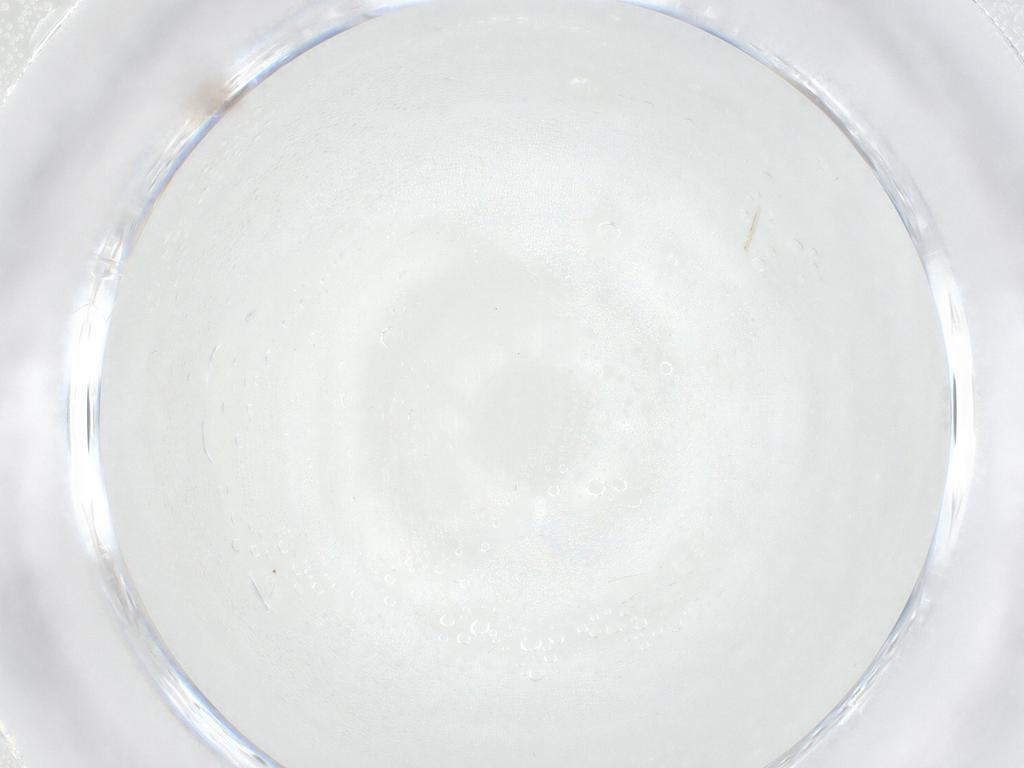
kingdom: Animalia
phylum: Arthropoda
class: Insecta
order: Hymenoptera
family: Mymaridae
